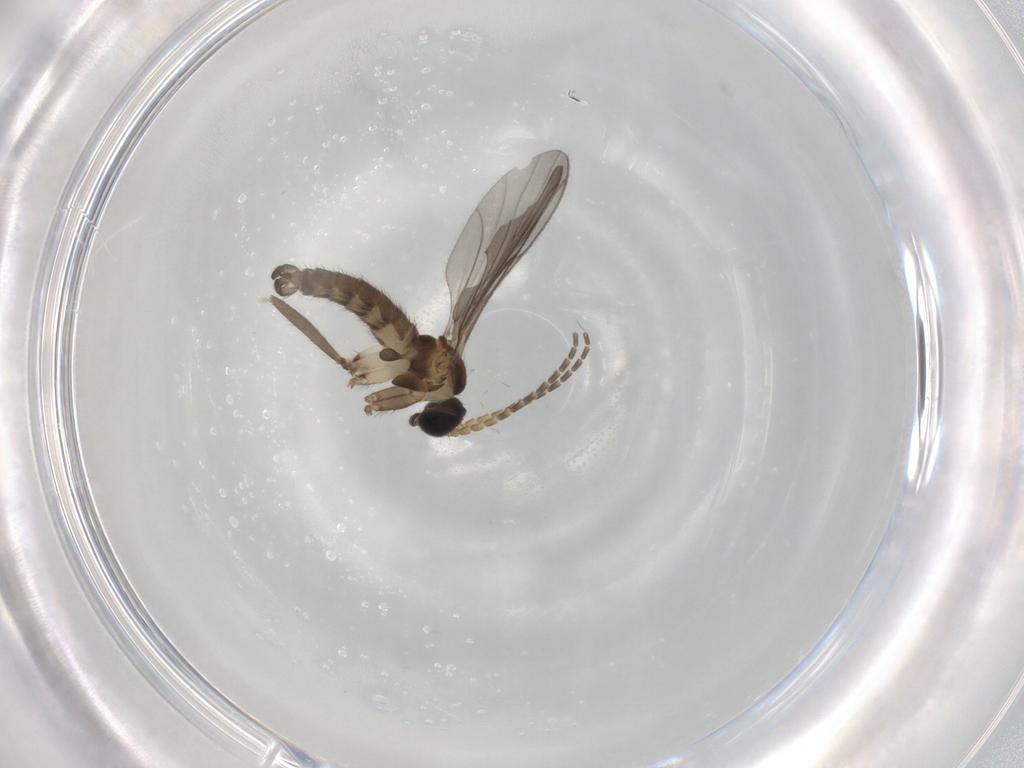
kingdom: Animalia
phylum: Arthropoda
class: Insecta
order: Diptera
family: Sciaridae
